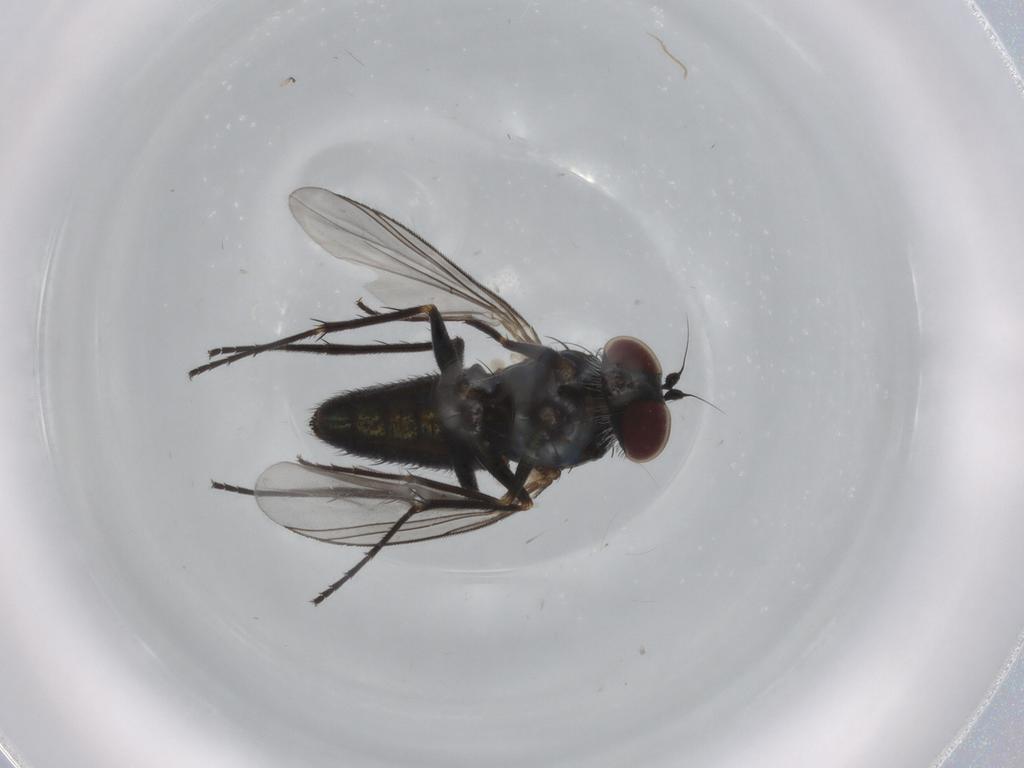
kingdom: Animalia
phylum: Arthropoda
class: Insecta
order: Diptera
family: Dolichopodidae
